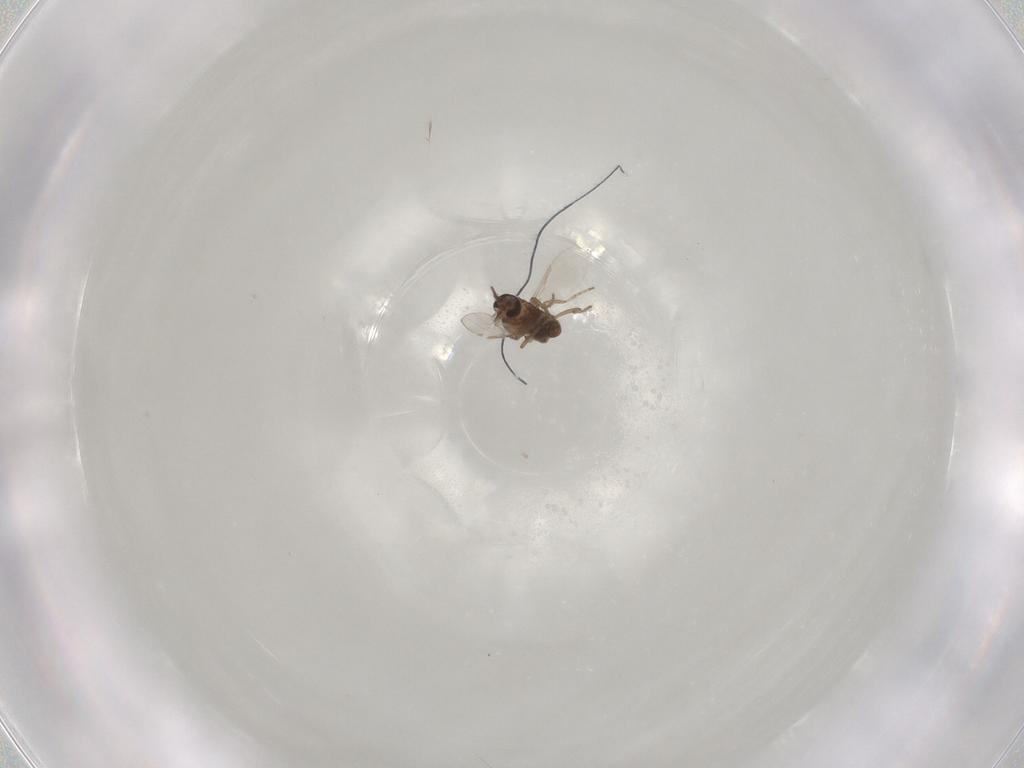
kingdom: Animalia
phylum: Arthropoda
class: Insecta
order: Diptera
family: Ceratopogonidae
